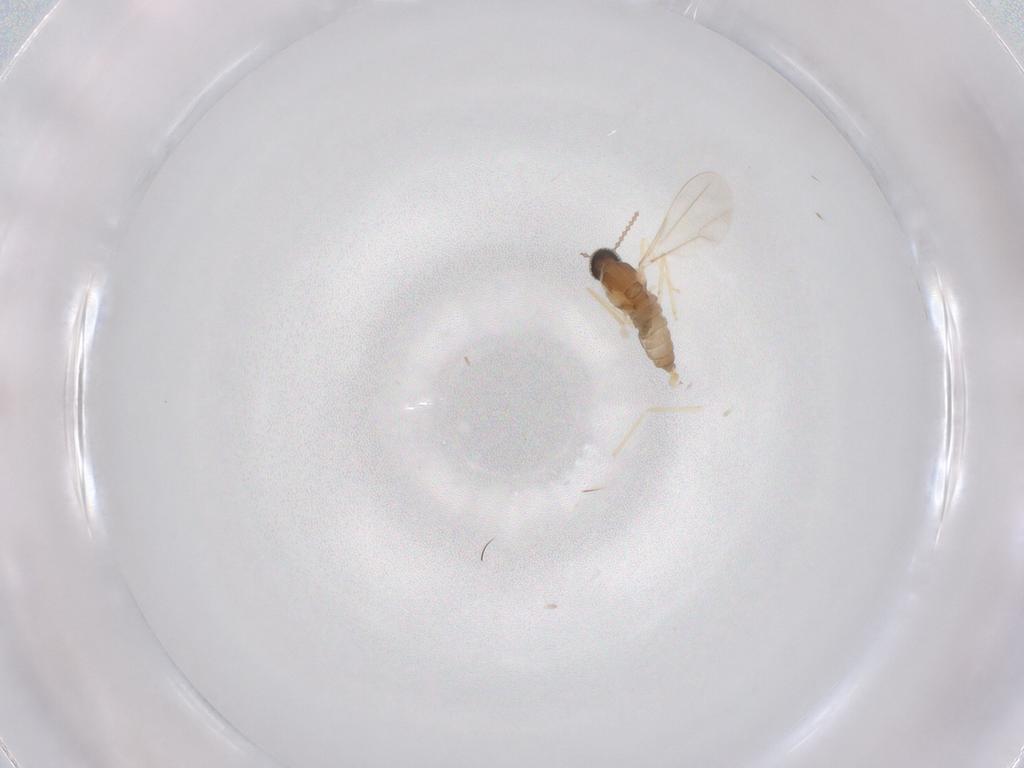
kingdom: Animalia
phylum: Arthropoda
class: Insecta
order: Diptera
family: Cecidomyiidae
